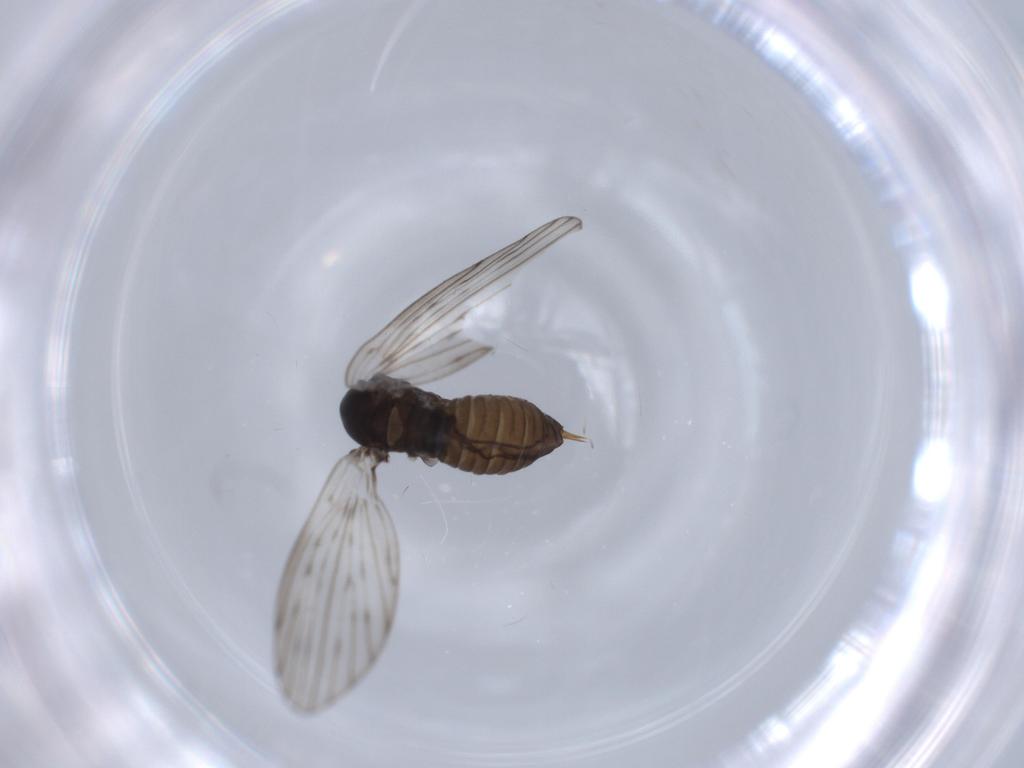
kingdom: Animalia
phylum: Arthropoda
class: Insecta
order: Diptera
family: Psychodidae
